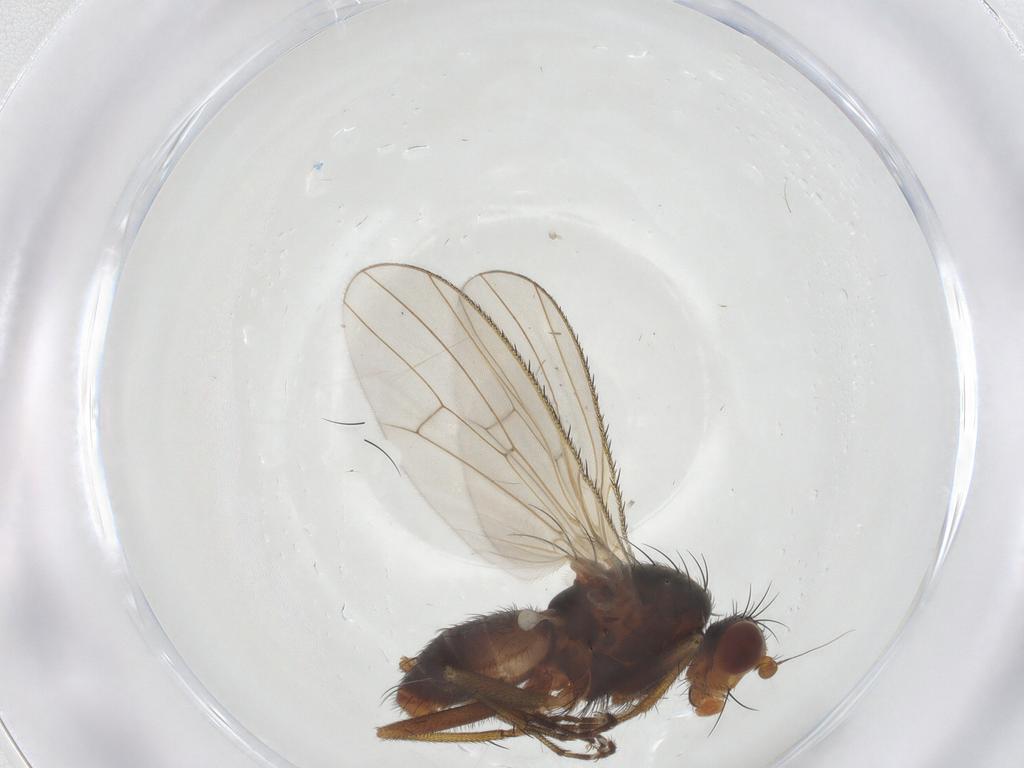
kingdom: Animalia
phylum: Arthropoda
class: Insecta
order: Diptera
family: Heleomyzidae
